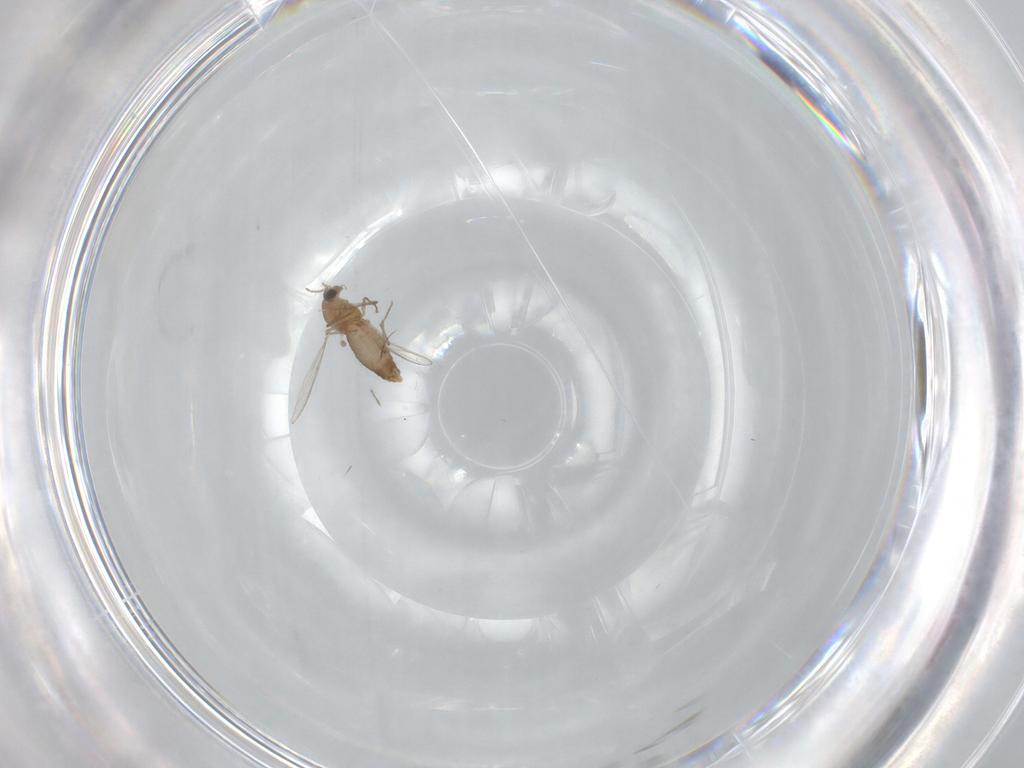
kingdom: Animalia
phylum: Arthropoda
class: Insecta
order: Diptera
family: Chironomidae
